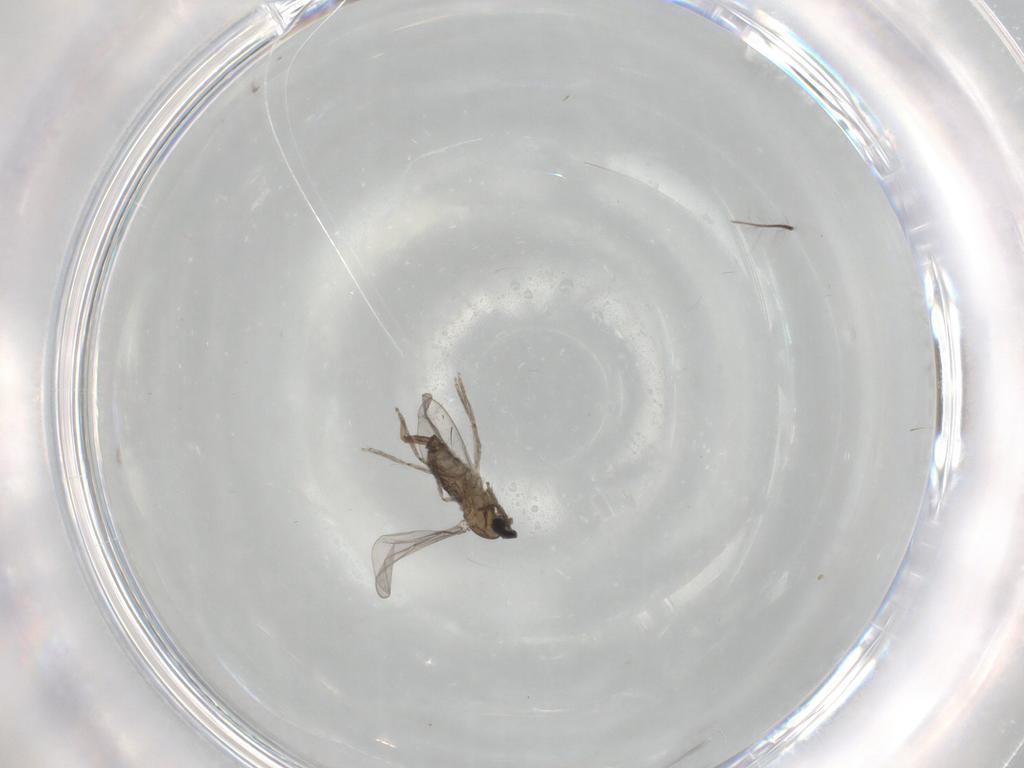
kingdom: Animalia
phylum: Arthropoda
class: Insecta
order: Diptera
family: Cecidomyiidae
